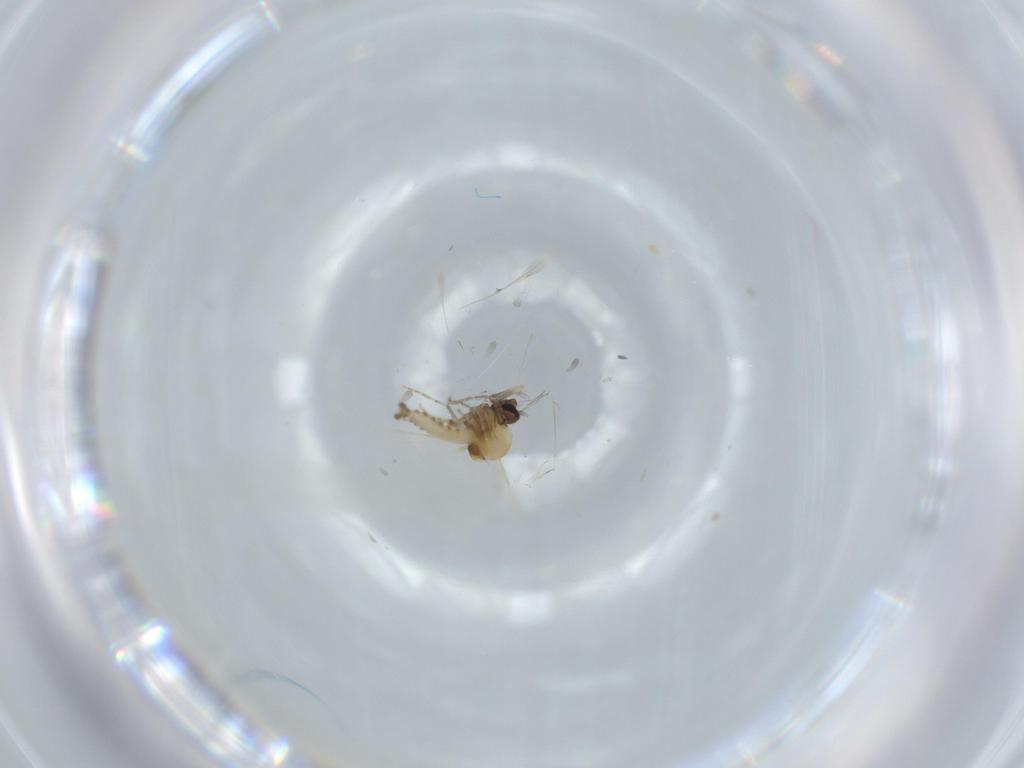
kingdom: Animalia
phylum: Arthropoda
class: Insecta
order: Diptera
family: Ceratopogonidae
